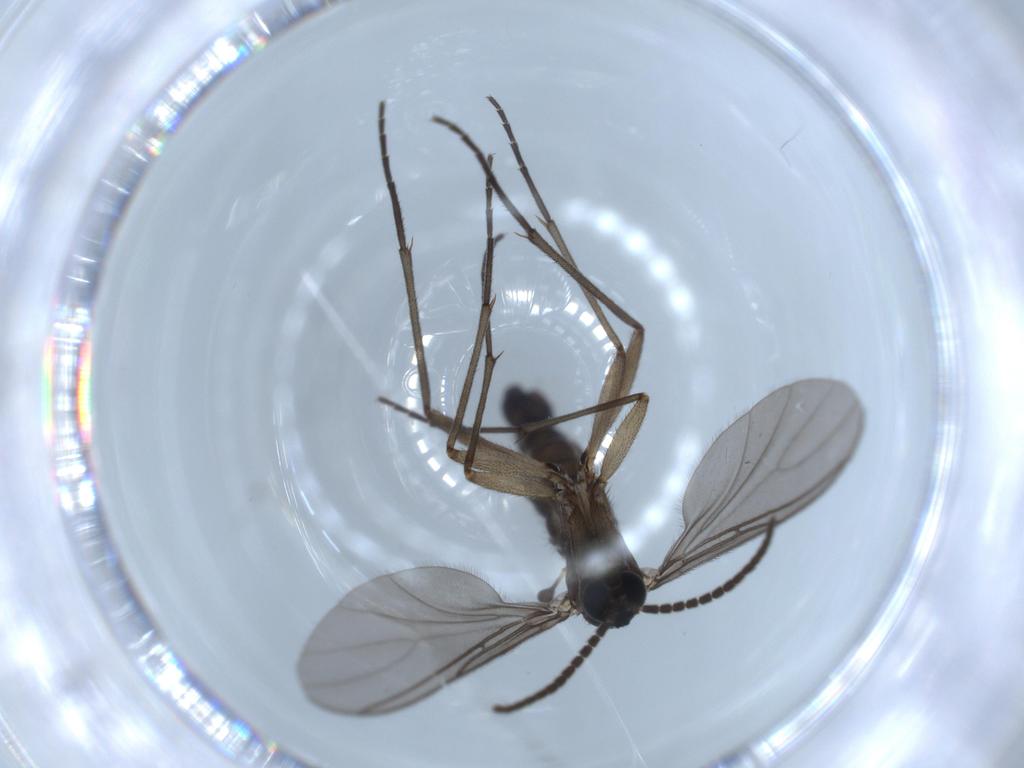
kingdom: Animalia
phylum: Arthropoda
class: Insecta
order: Diptera
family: Sciaridae
